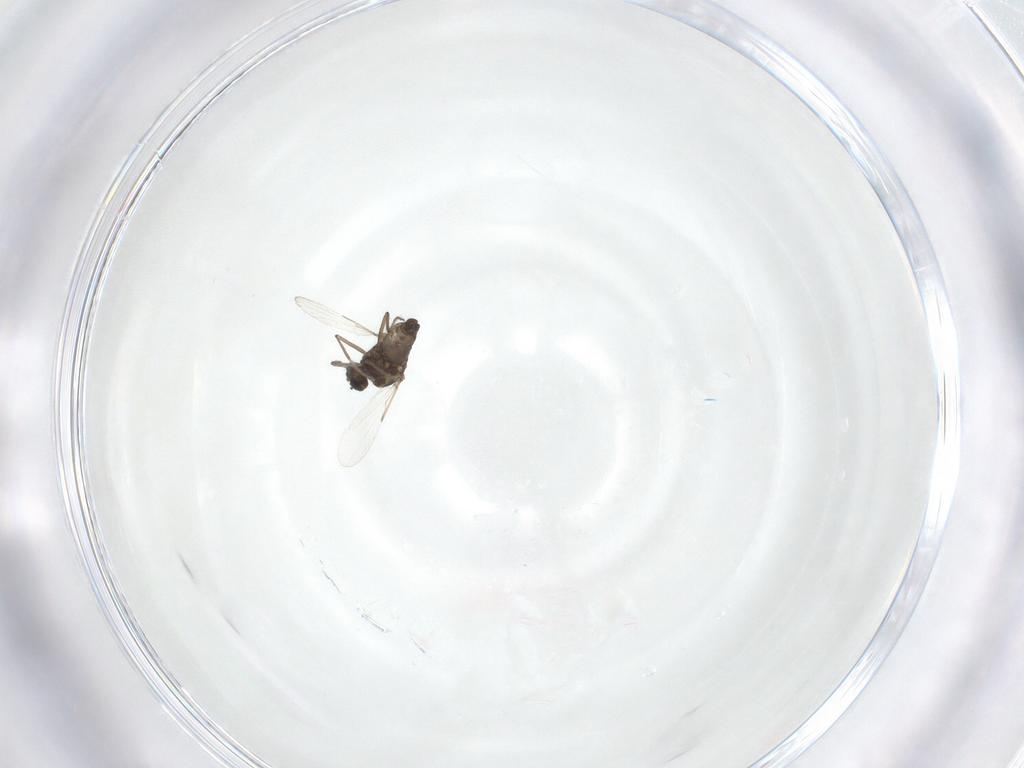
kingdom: Animalia
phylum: Arthropoda
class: Insecta
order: Diptera
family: Ceratopogonidae
